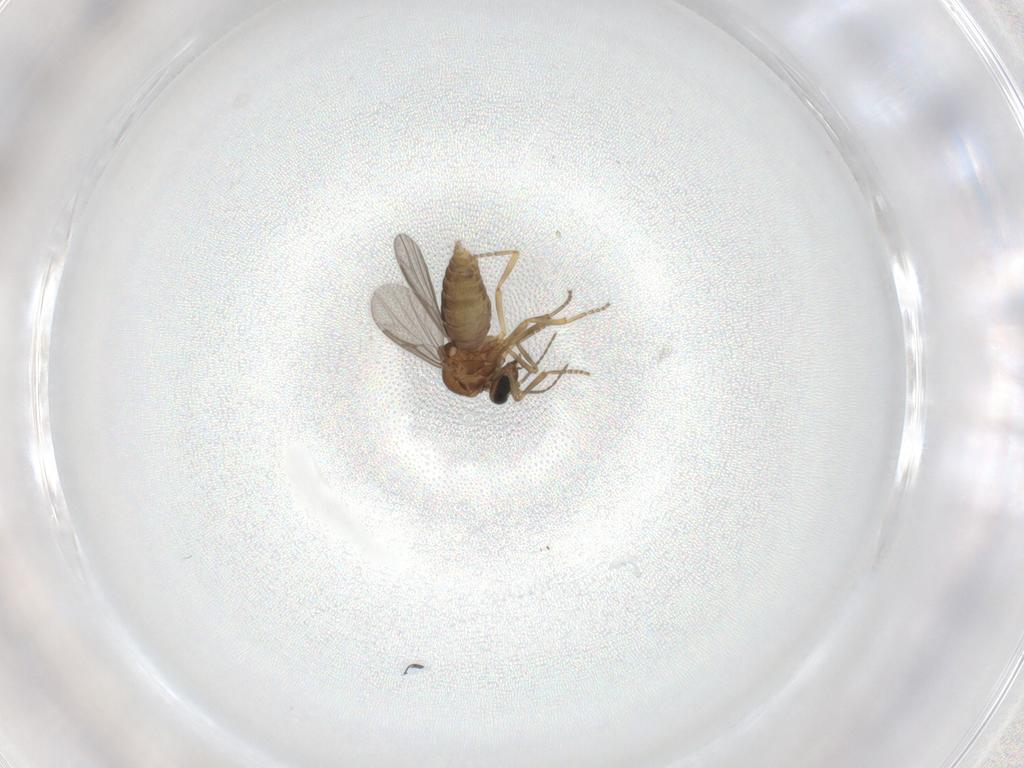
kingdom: Animalia
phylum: Arthropoda
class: Insecta
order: Diptera
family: Ceratopogonidae
